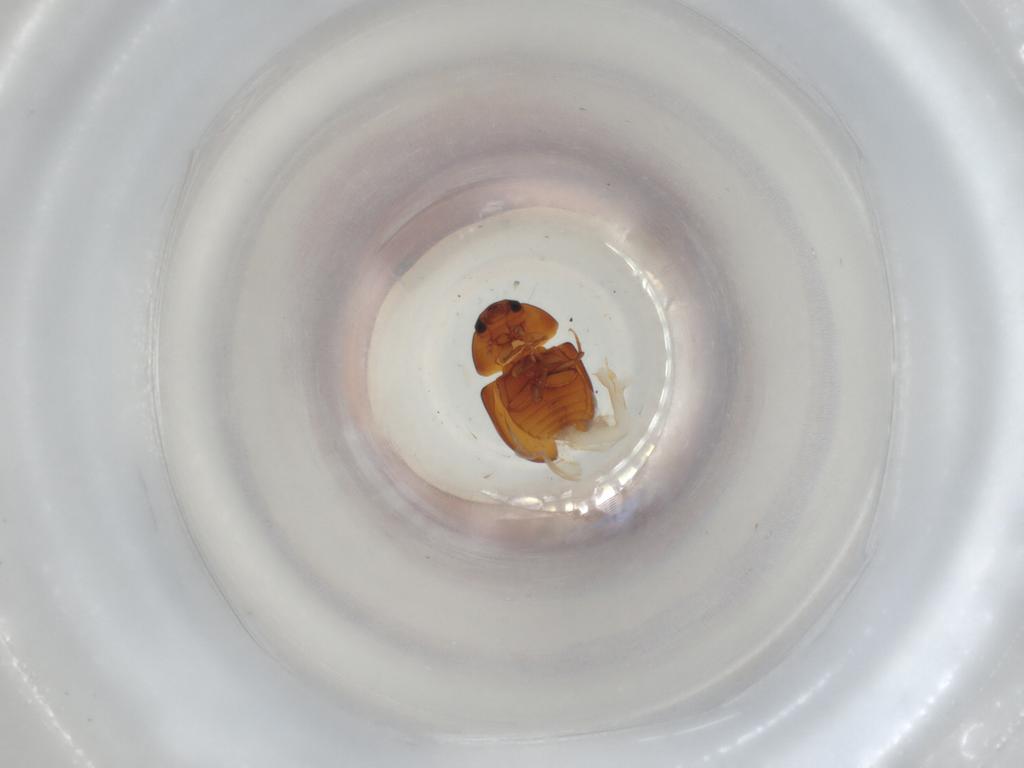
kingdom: Animalia
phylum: Arthropoda
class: Insecta
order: Coleoptera
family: Phalacridae
